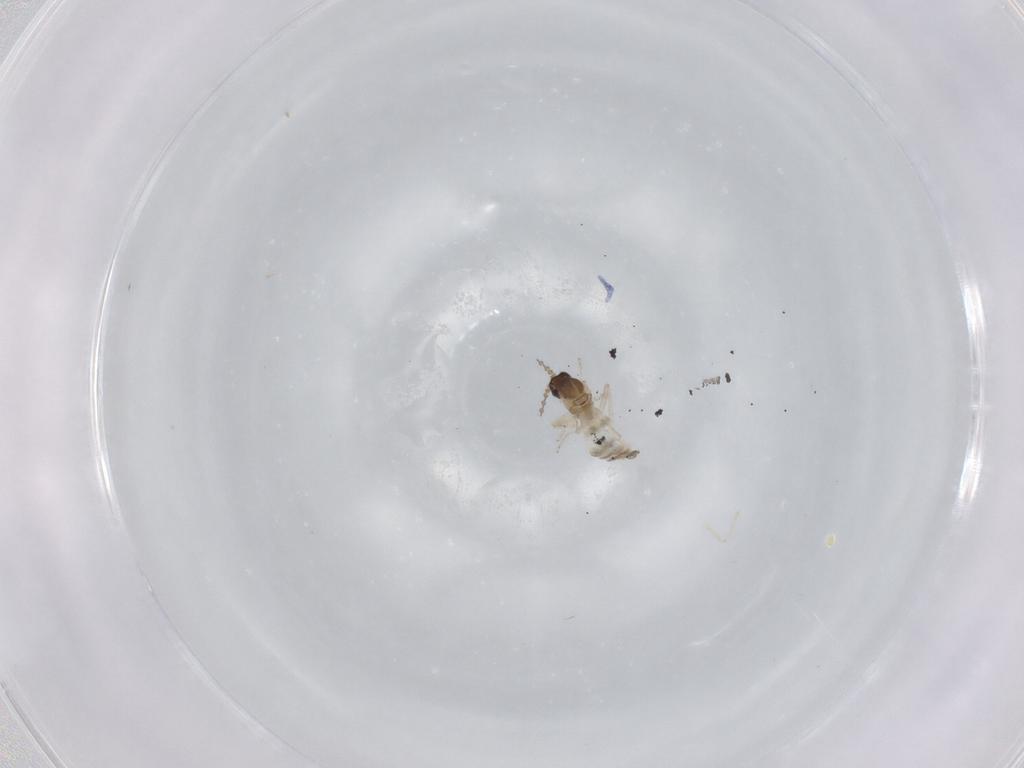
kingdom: Animalia
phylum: Arthropoda
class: Insecta
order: Diptera
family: Cecidomyiidae
